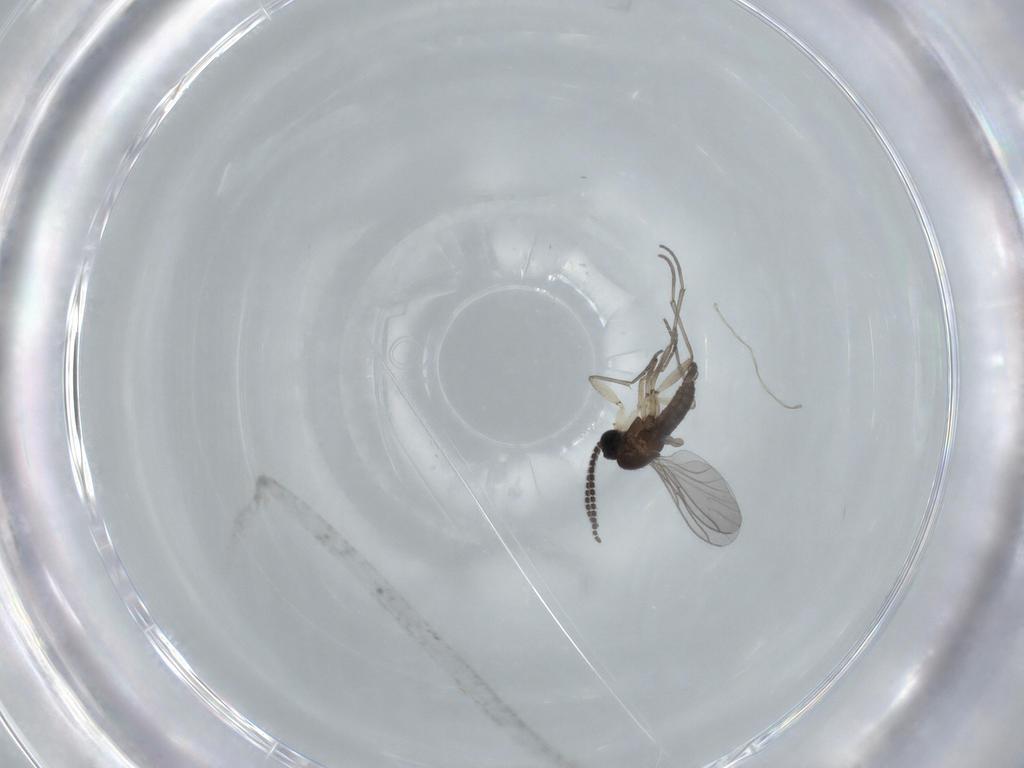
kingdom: Animalia
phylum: Arthropoda
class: Insecta
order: Diptera
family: Sciaridae
